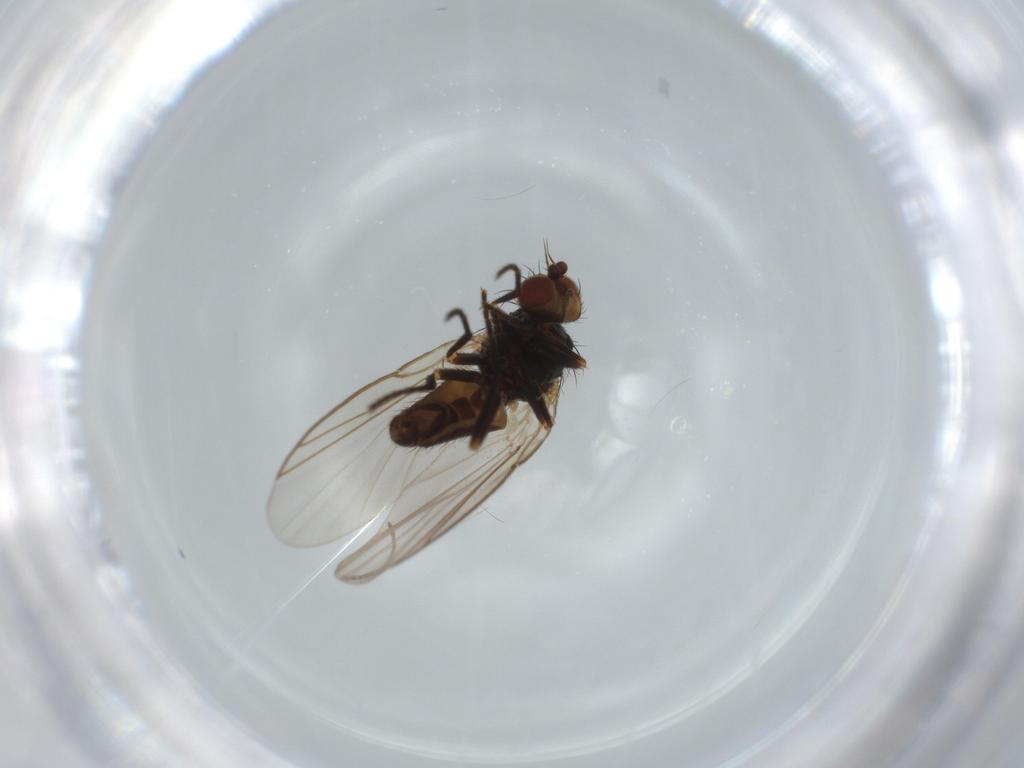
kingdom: Animalia
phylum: Arthropoda
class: Insecta
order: Diptera
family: Agromyzidae
